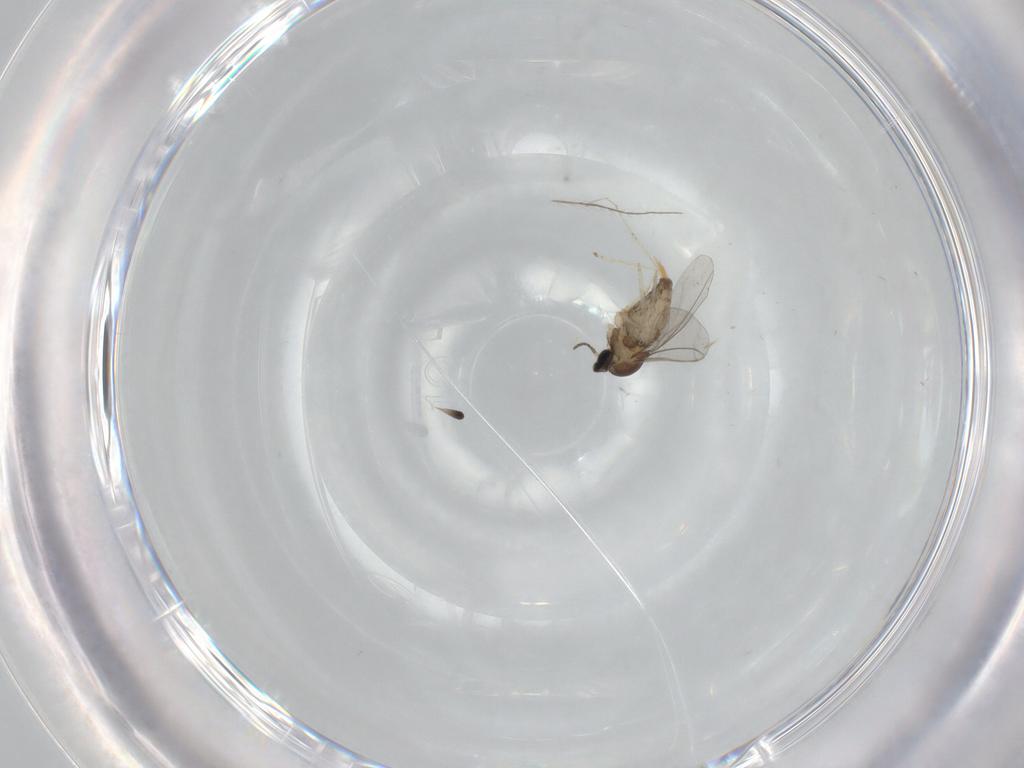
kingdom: Animalia
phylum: Arthropoda
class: Insecta
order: Diptera
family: Cecidomyiidae
